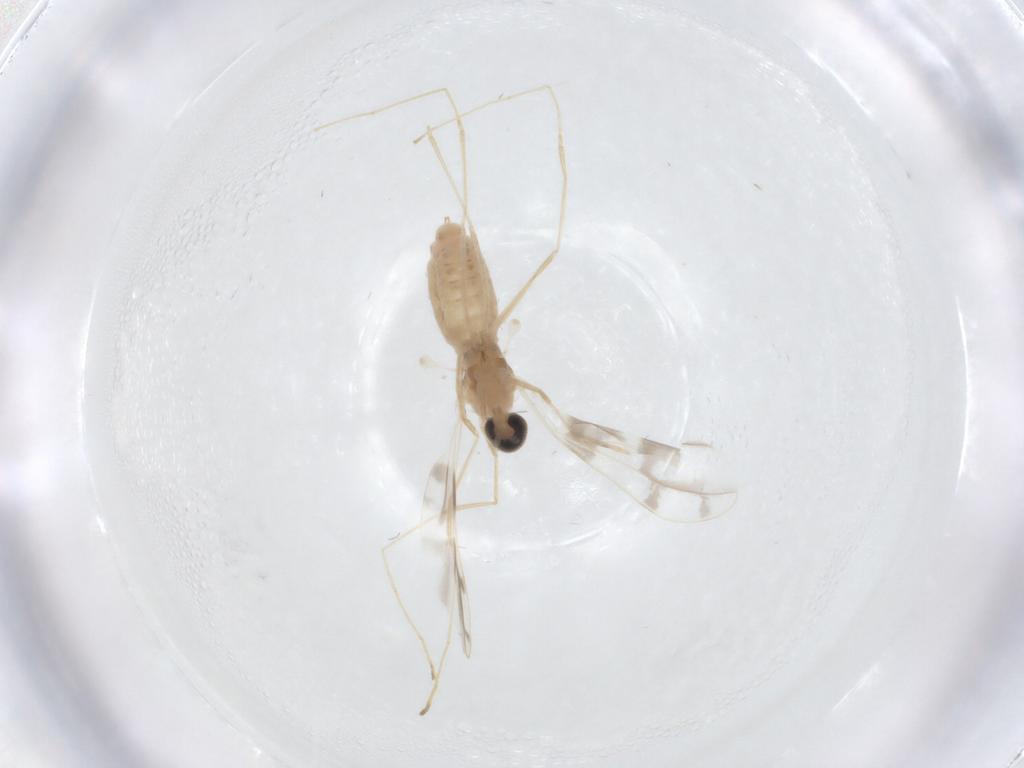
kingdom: Animalia
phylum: Arthropoda
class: Insecta
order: Diptera
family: Cecidomyiidae
